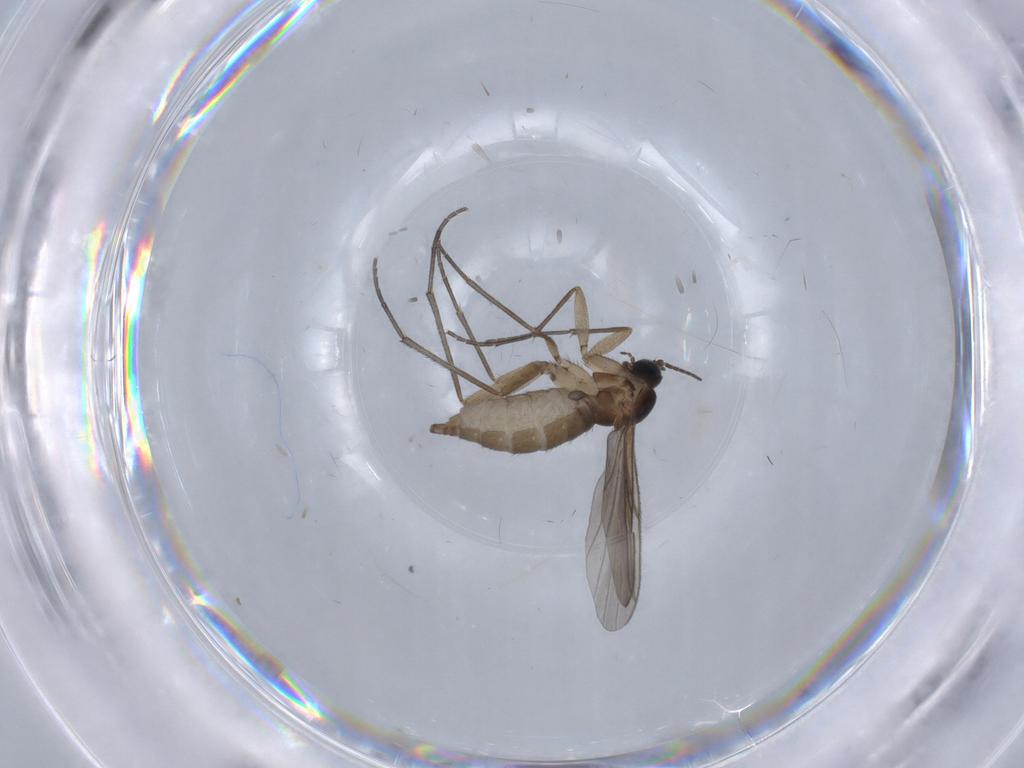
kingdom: Animalia
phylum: Arthropoda
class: Insecta
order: Diptera
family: Sciaridae
